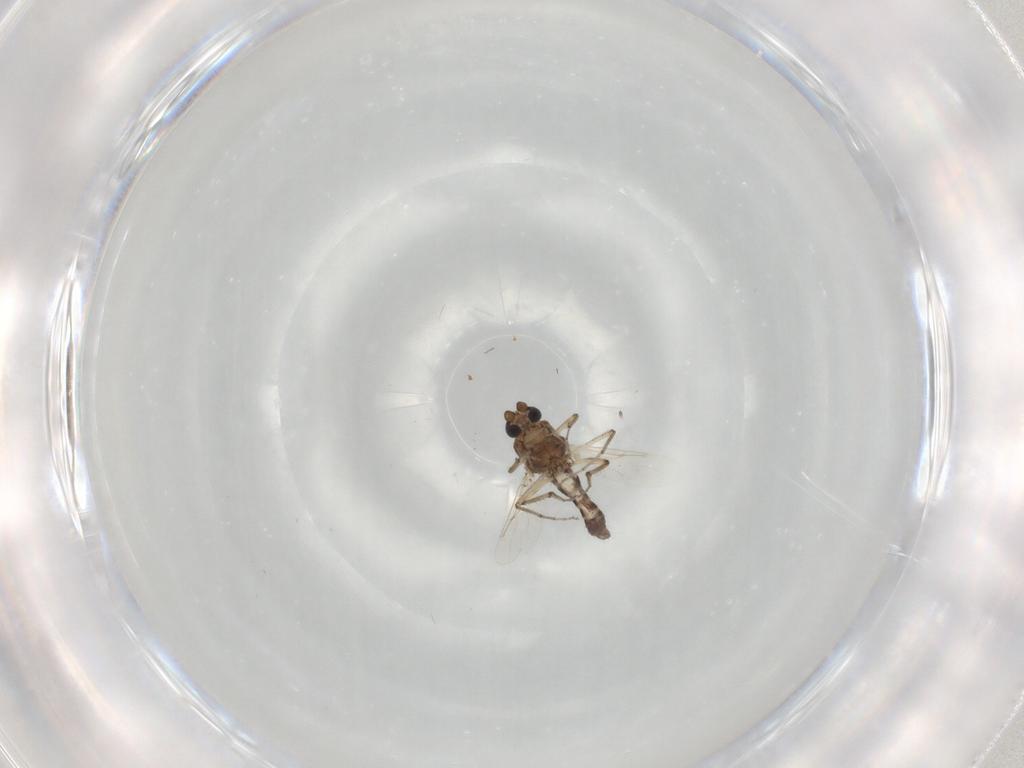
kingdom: Animalia
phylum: Arthropoda
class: Insecta
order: Diptera
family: Ceratopogonidae
